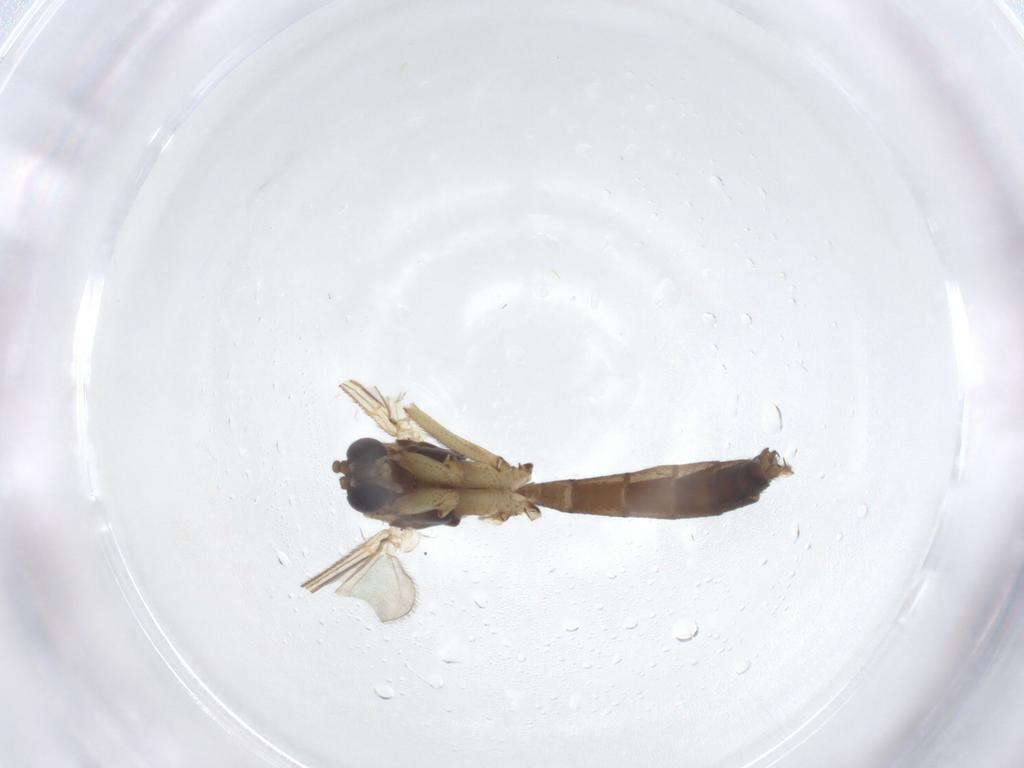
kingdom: Animalia
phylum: Arthropoda
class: Insecta
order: Diptera
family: Mycetophilidae
